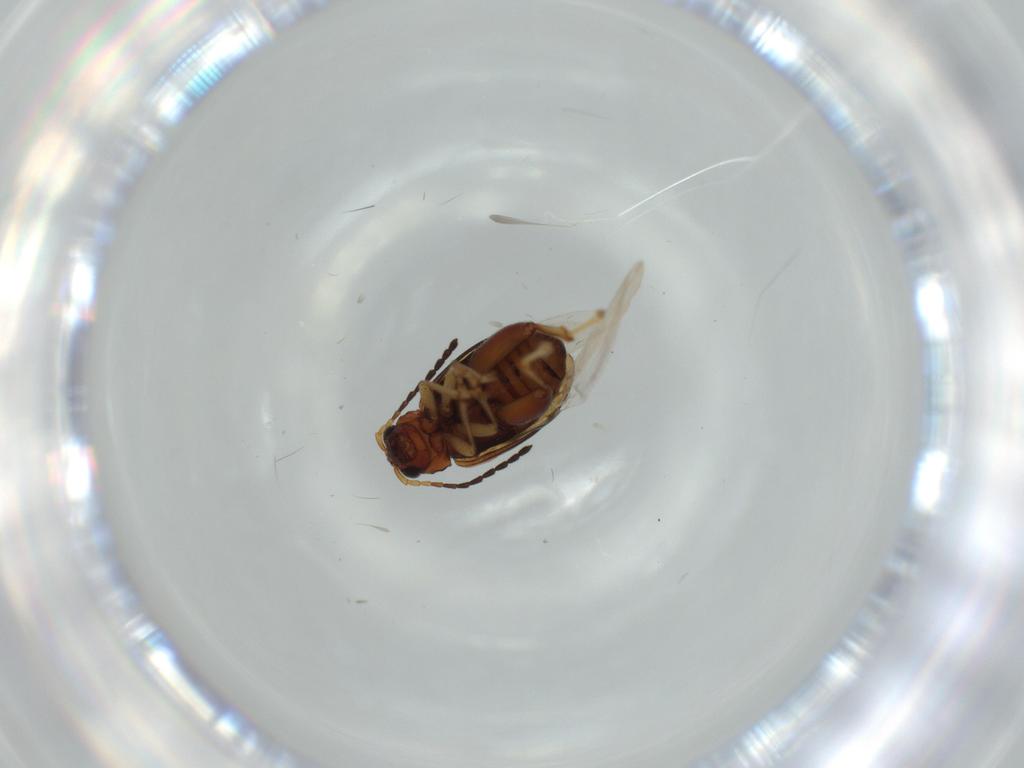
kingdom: Animalia
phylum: Arthropoda
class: Insecta
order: Coleoptera
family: Chrysomelidae
